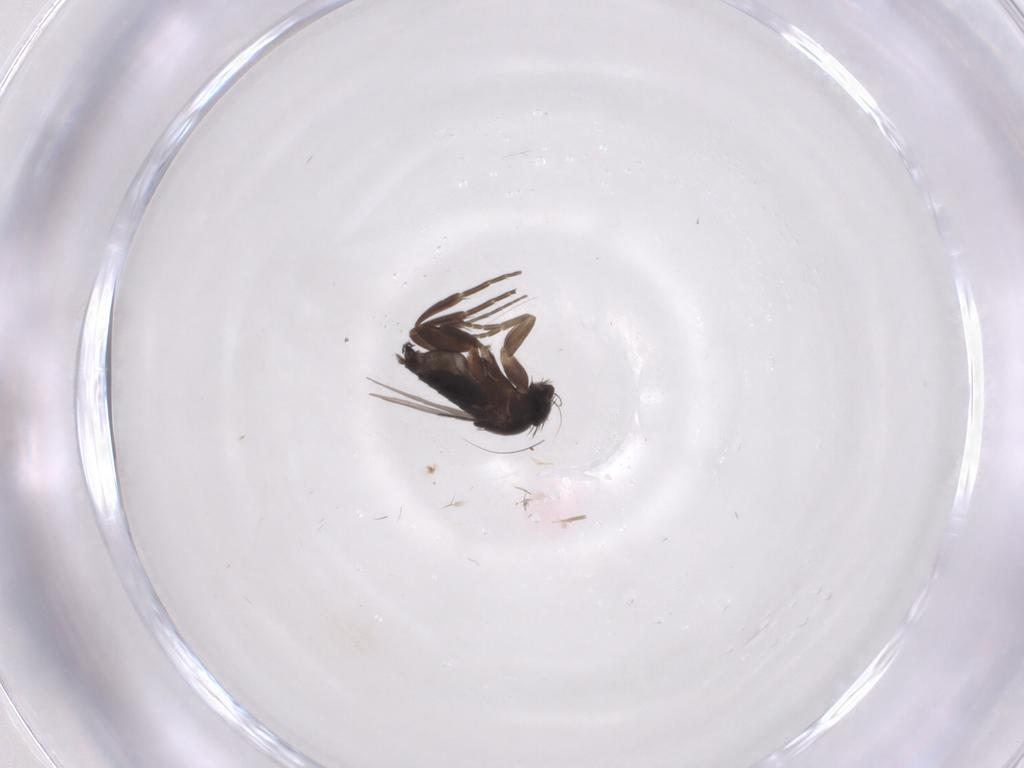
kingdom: Animalia
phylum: Arthropoda
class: Insecta
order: Diptera
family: Phoridae
